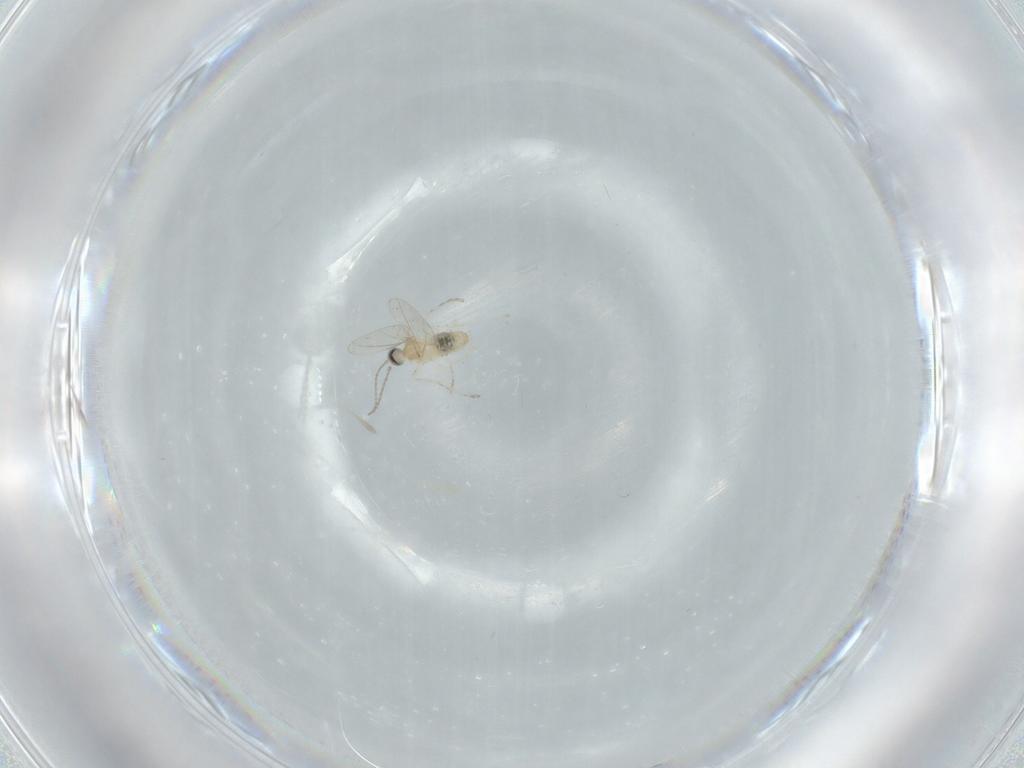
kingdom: Animalia
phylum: Arthropoda
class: Insecta
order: Diptera
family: Cecidomyiidae
